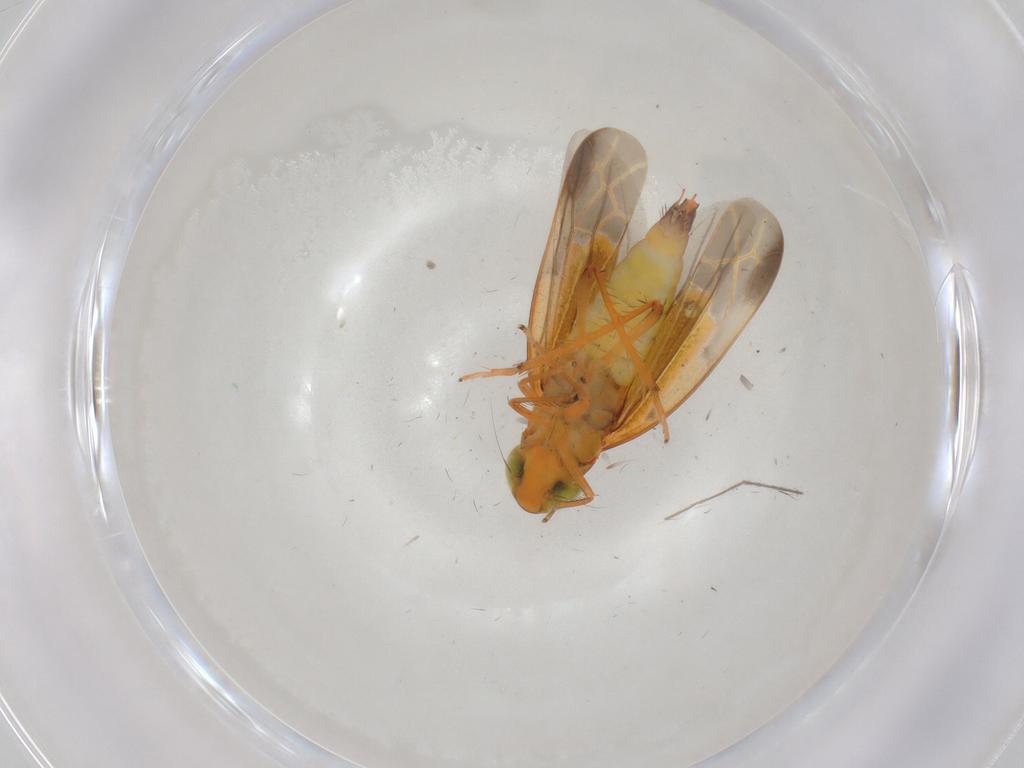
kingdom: Animalia
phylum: Arthropoda
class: Insecta
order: Hemiptera
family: Cicadellidae
